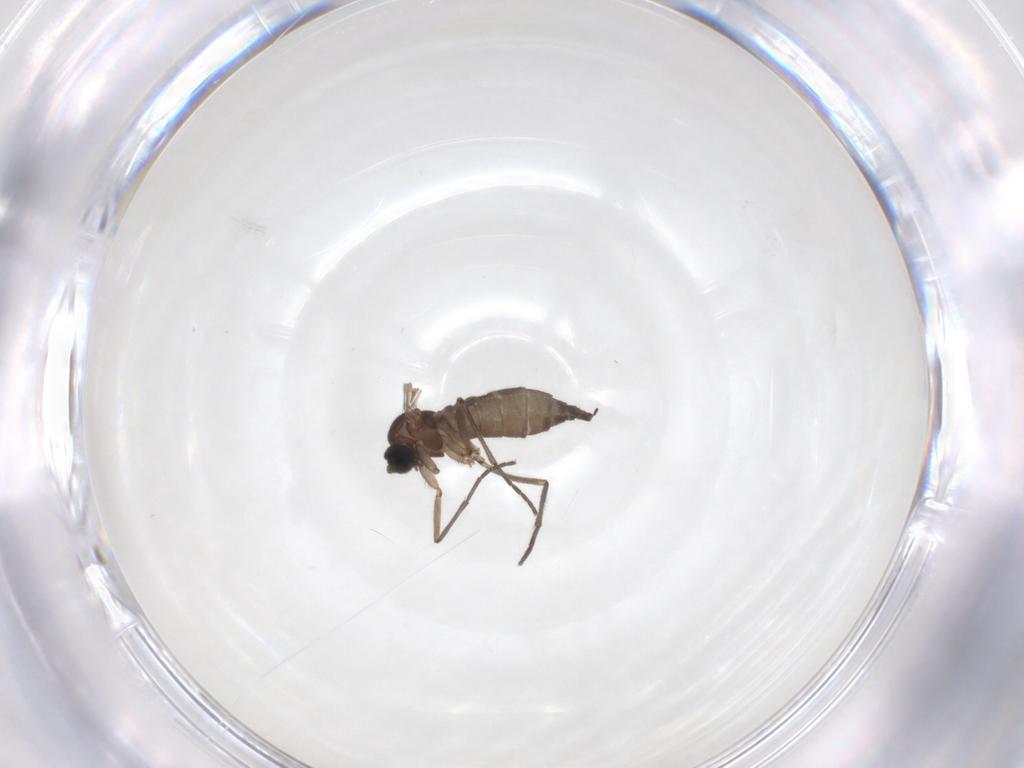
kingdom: Animalia
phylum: Arthropoda
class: Insecta
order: Diptera
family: Sciaridae
